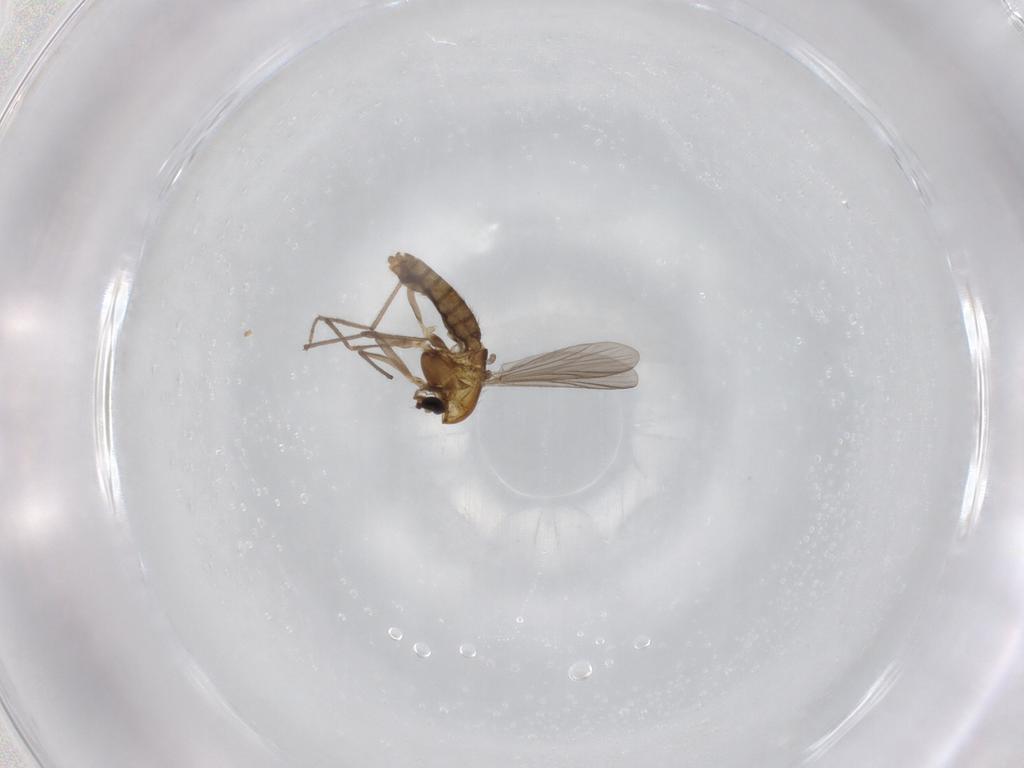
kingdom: Animalia
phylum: Arthropoda
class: Insecta
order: Diptera
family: Chironomidae
